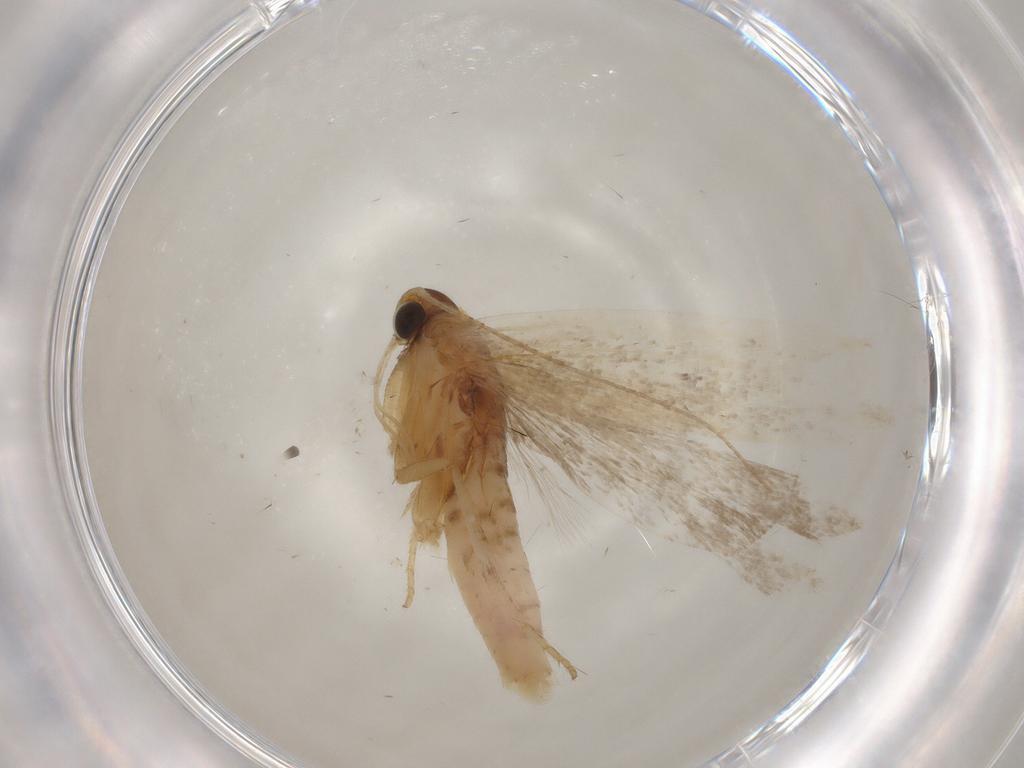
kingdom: Animalia
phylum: Arthropoda
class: Insecta
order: Lepidoptera
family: Gelechiidae
